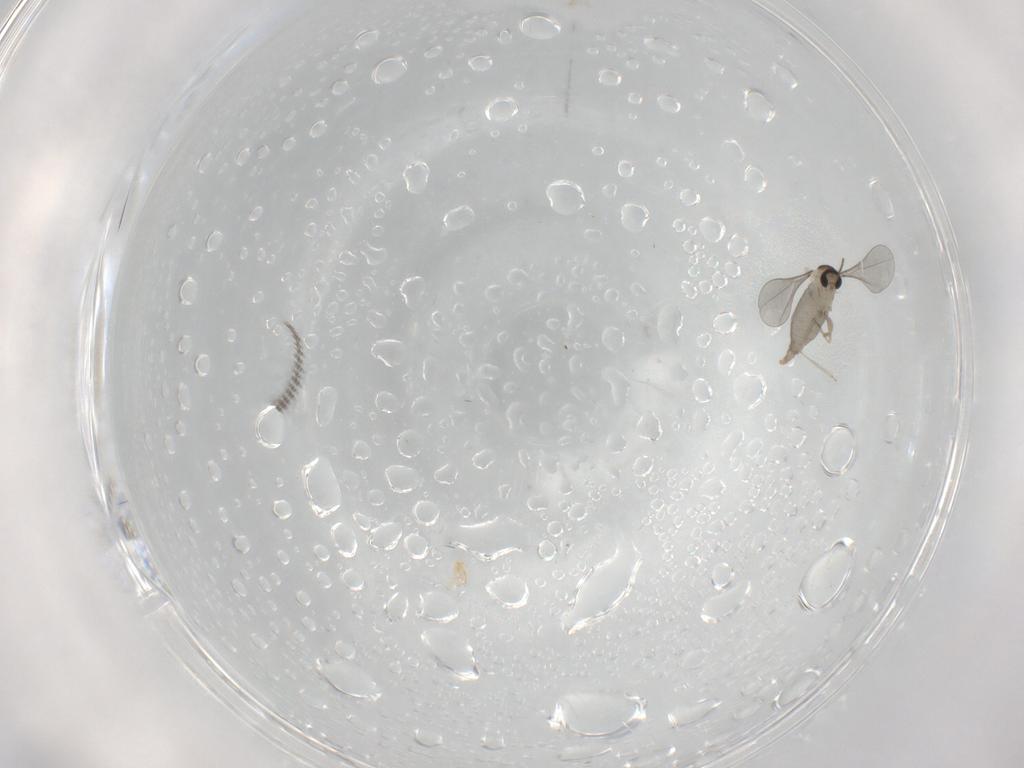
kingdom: Animalia
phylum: Arthropoda
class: Insecta
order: Diptera
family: Cecidomyiidae
